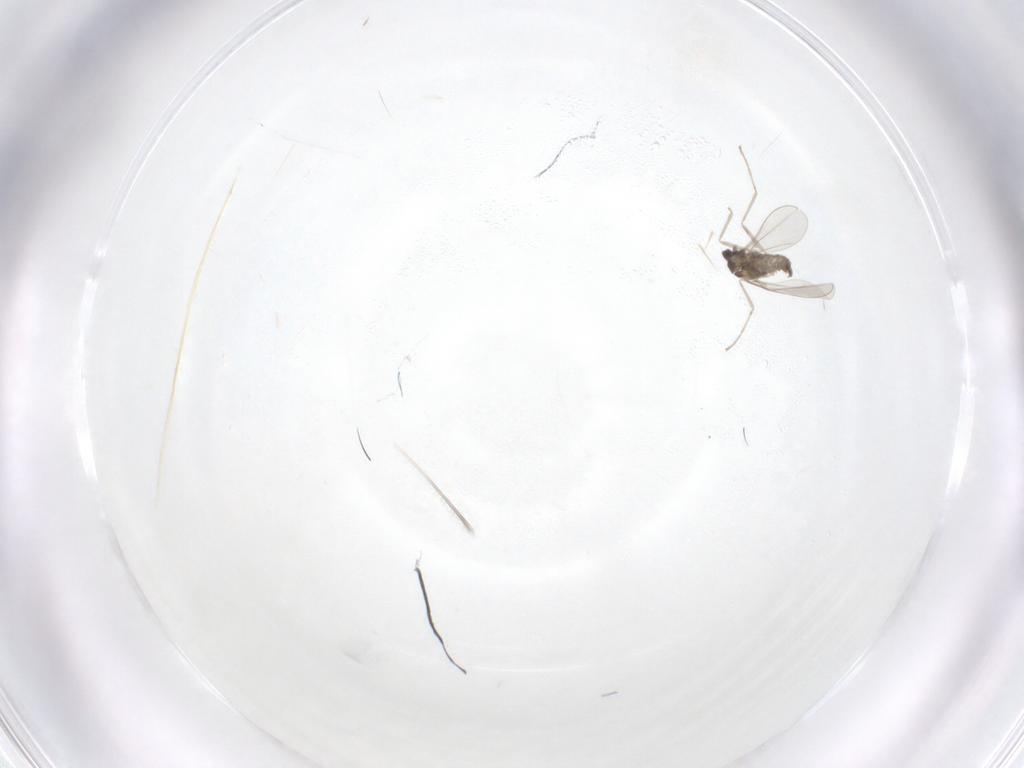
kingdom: Animalia
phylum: Arthropoda
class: Insecta
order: Diptera
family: Cecidomyiidae
